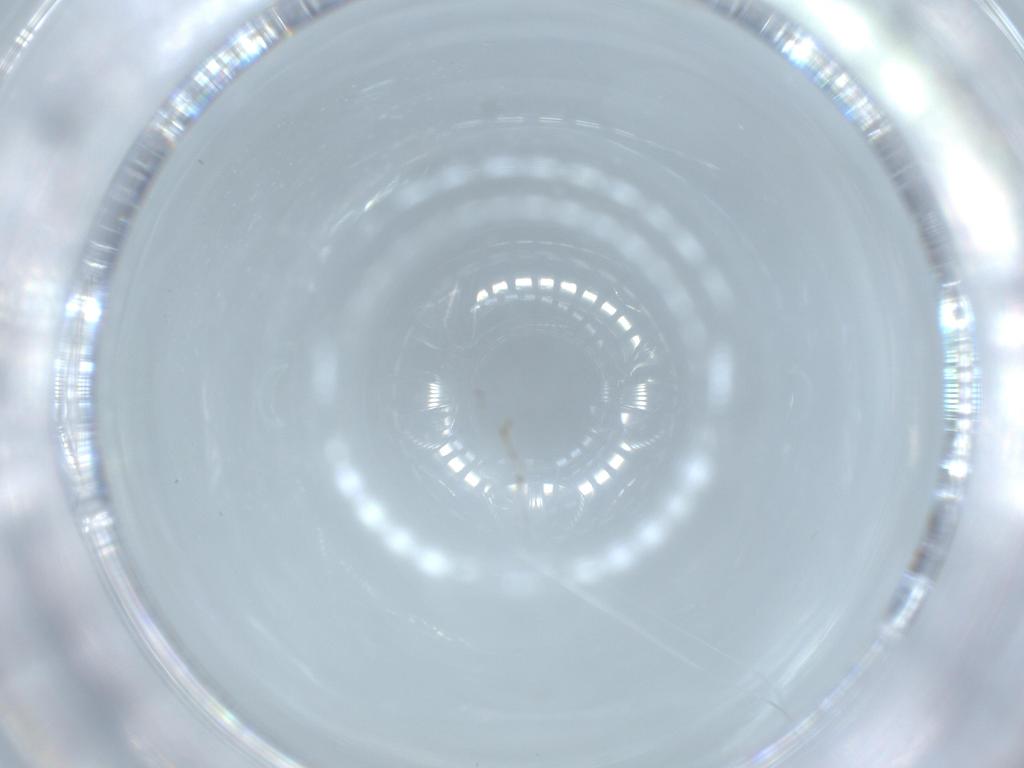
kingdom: Animalia
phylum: Arthropoda
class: Insecta
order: Diptera
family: Cecidomyiidae
